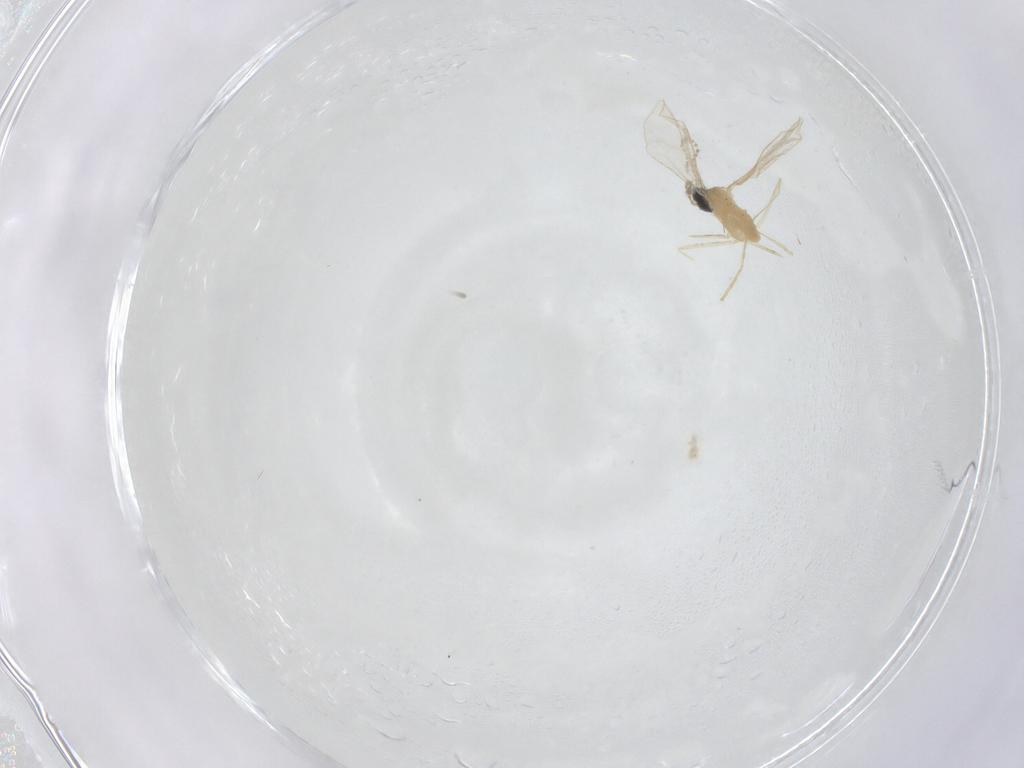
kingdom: Animalia
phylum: Arthropoda
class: Insecta
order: Diptera
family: Cecidomyiidae
